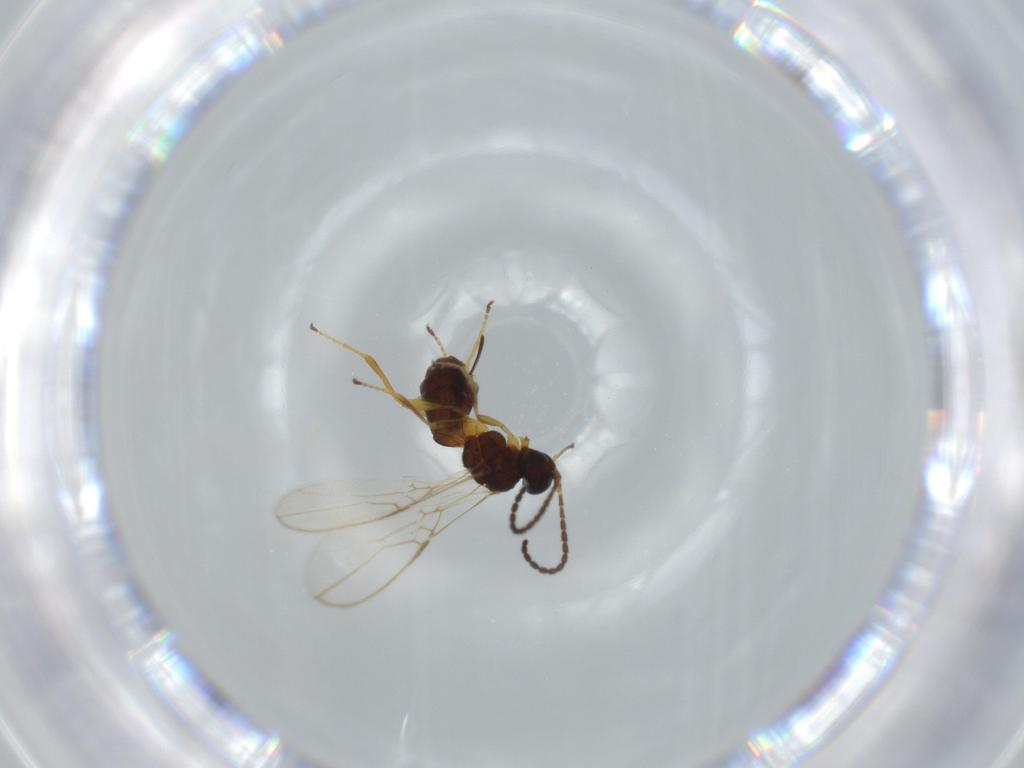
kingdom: Animalia
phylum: Arthropoda
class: Insecta
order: Hymenoptera
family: Braconidae
